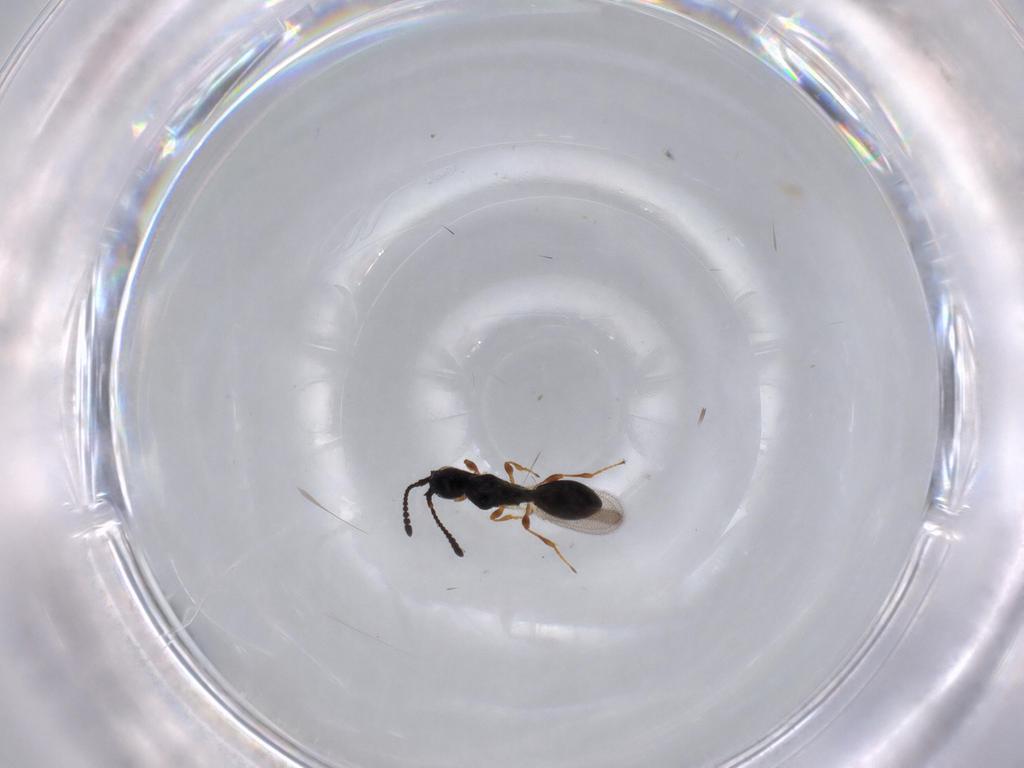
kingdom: Animalia
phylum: Arthropoda
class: Insecta
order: Hymenoptera
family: Diapriidae
